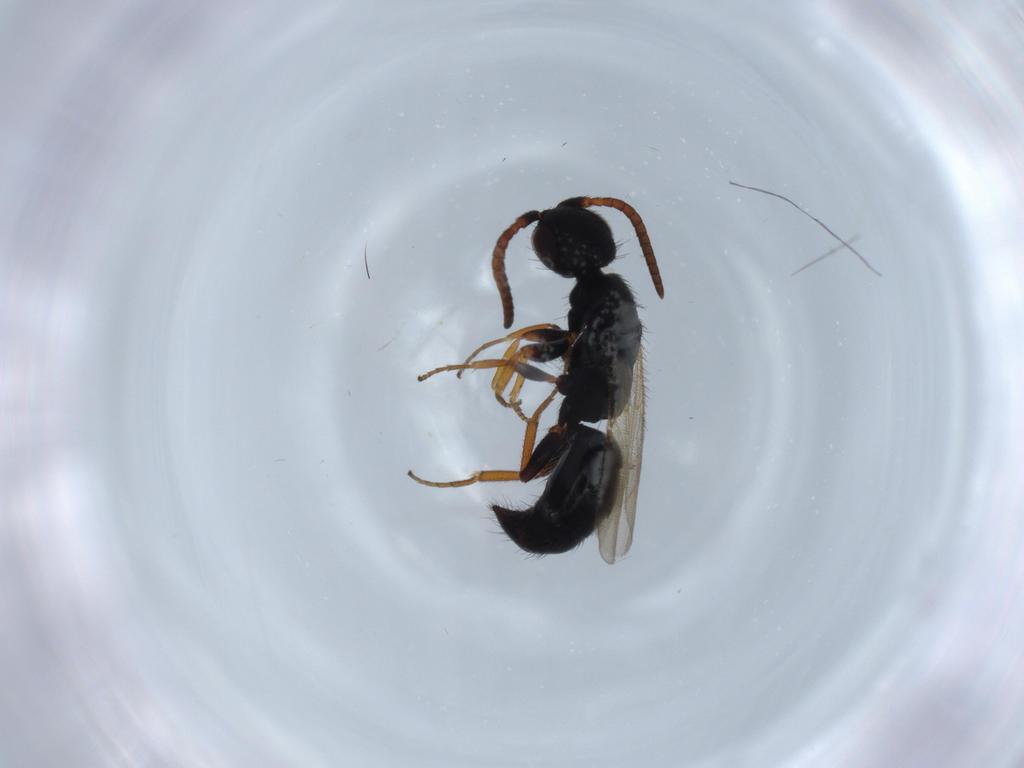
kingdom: Animalia
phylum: Arthropoda
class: Insecta
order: Hymenoptera
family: Bethylidae
